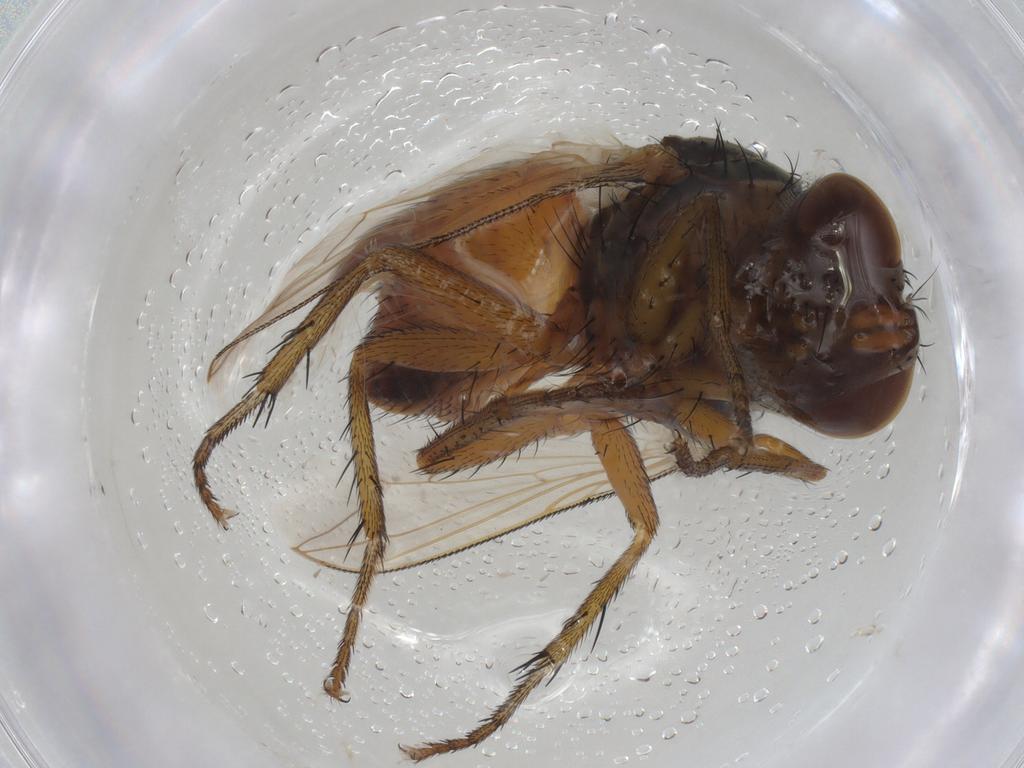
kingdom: Animalia
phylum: Arthropoda
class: Insecta
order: Diptera
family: Sarcophagidae
